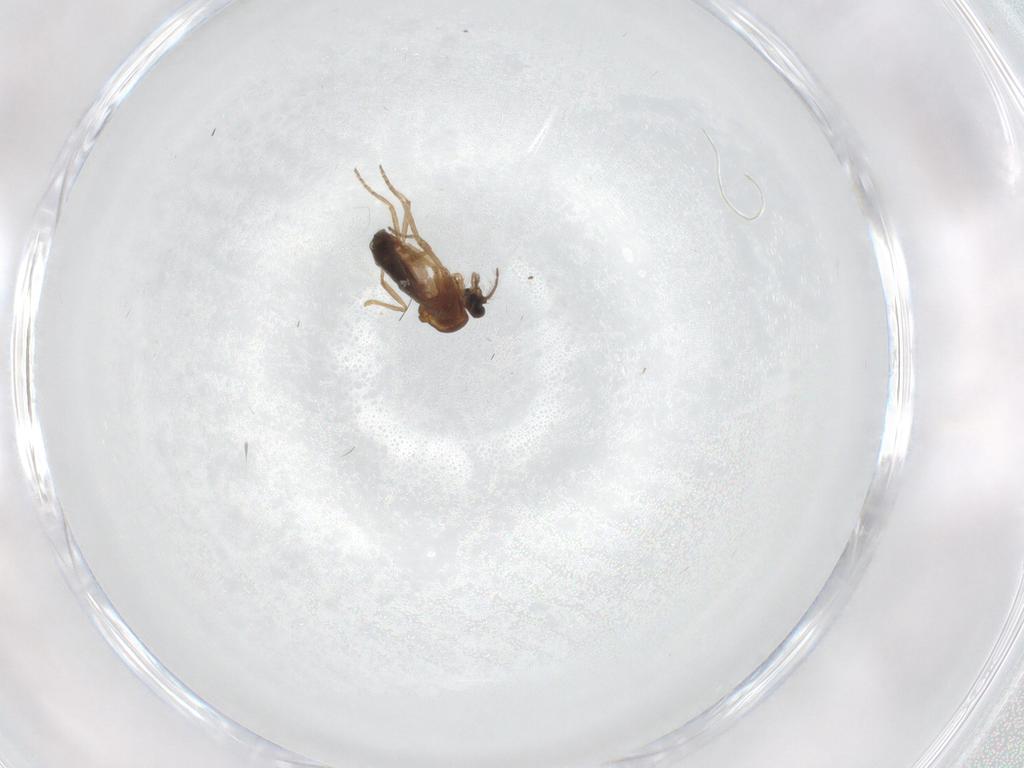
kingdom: Animalia
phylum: Arthropoda
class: Insecta
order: Diptera
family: Ceratopogonidae
